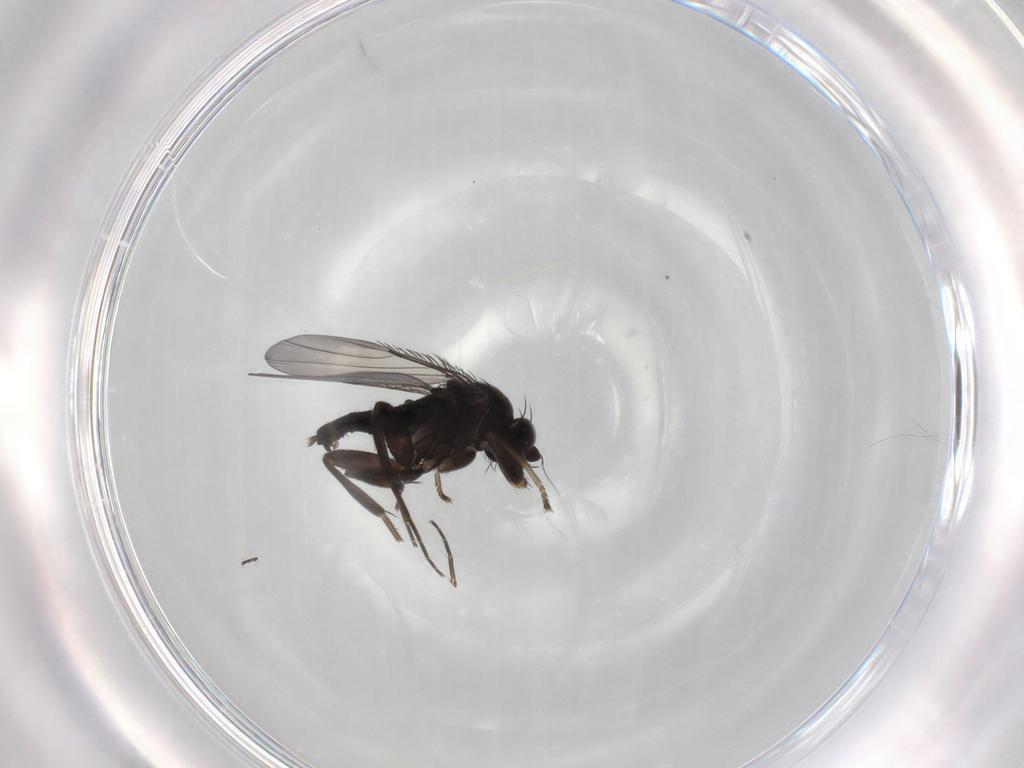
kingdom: Animalia
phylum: Arthropoda
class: Insecta
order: Diptera
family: Phoridae
